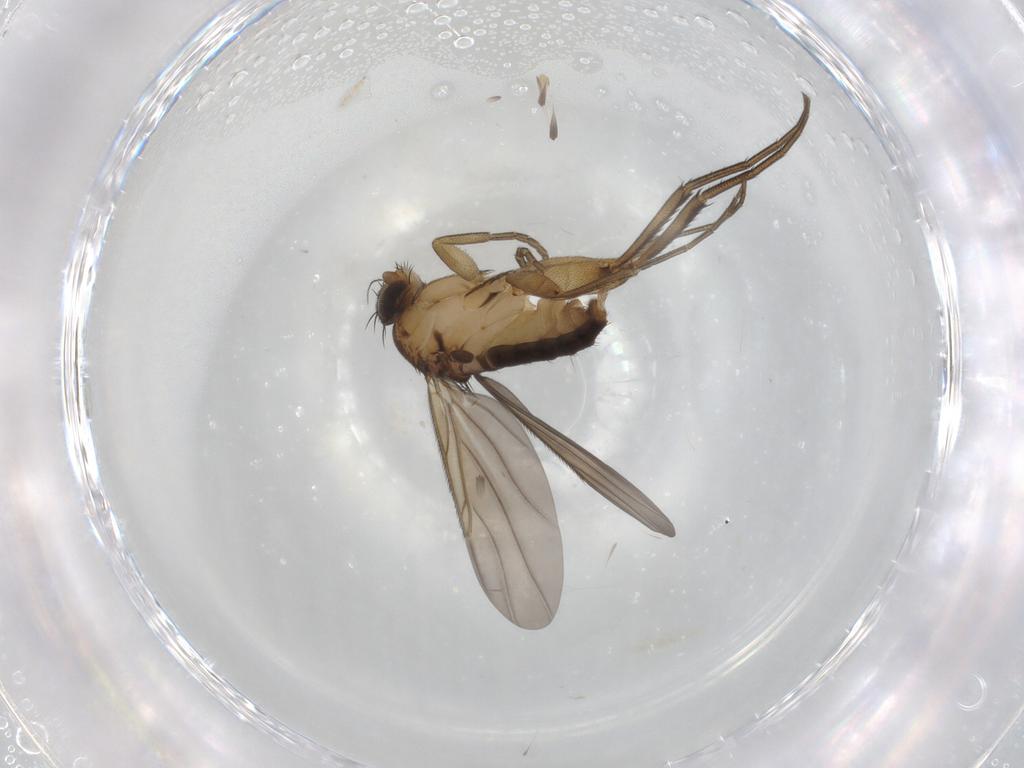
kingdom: Animalia
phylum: Arthropoda
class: Insecta
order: Diptera
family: Phoridae
